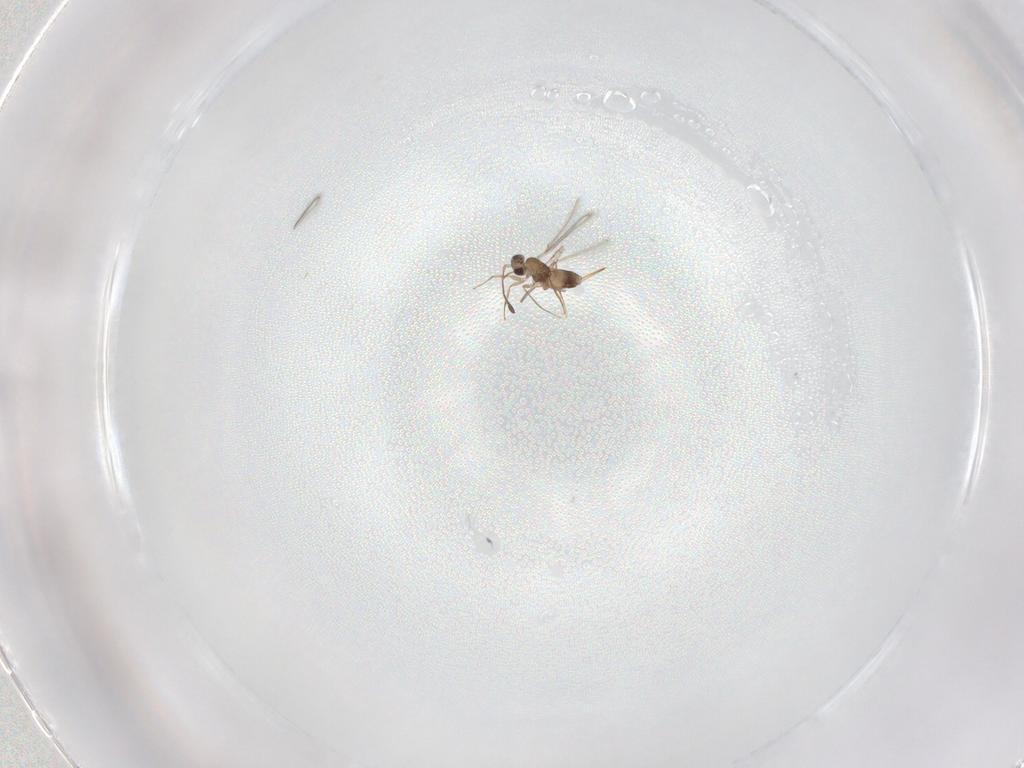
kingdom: Animalia
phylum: Arthropoda
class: Insecta
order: Hymenoptera
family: Mymaridae
